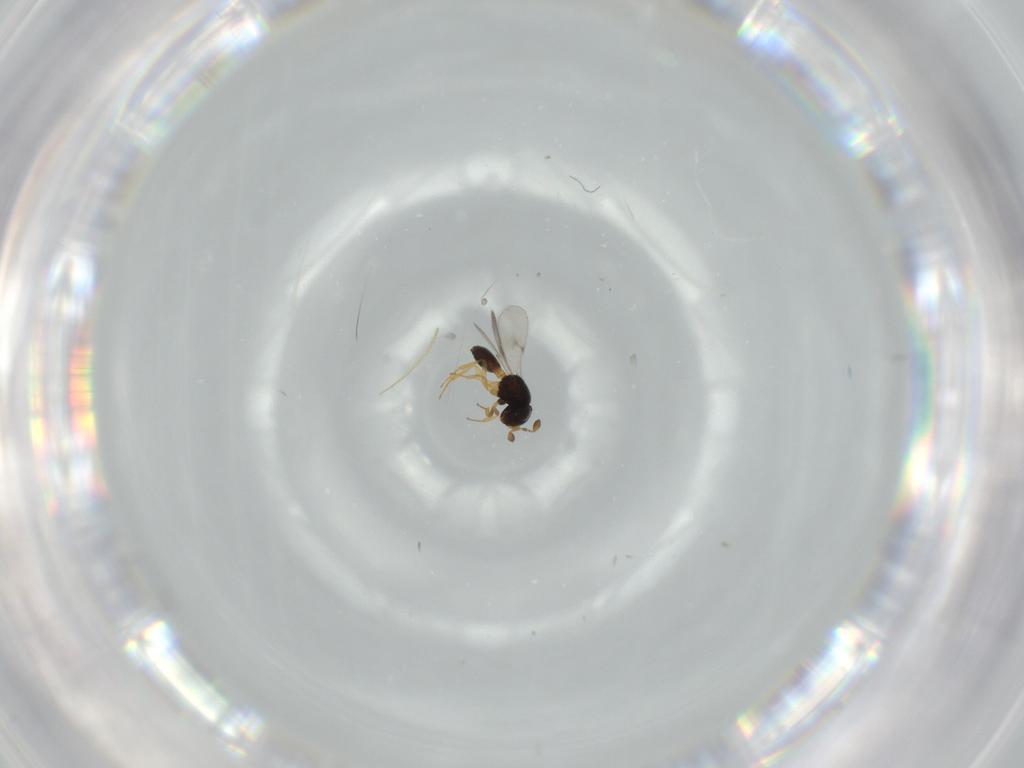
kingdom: Animalia
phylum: Arthropoda
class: Insecta
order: Hymenoptera
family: Scelionidae
